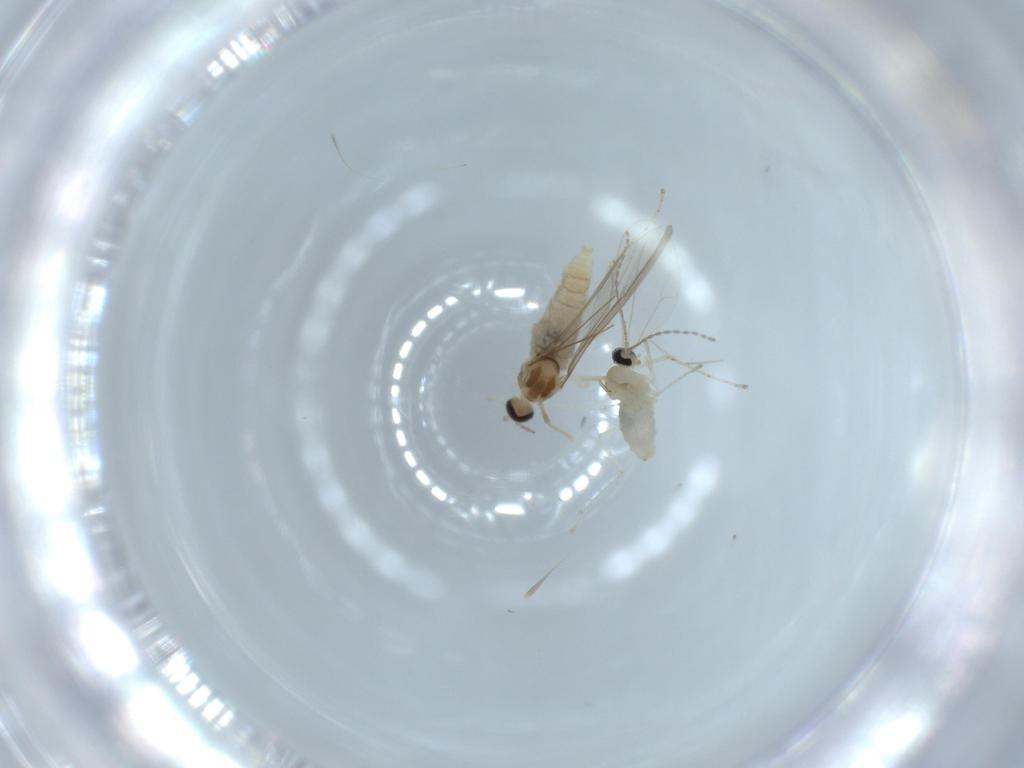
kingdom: Animalia
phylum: Arthropoda
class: Insecta
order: Diptera
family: Cecidomyiidae
